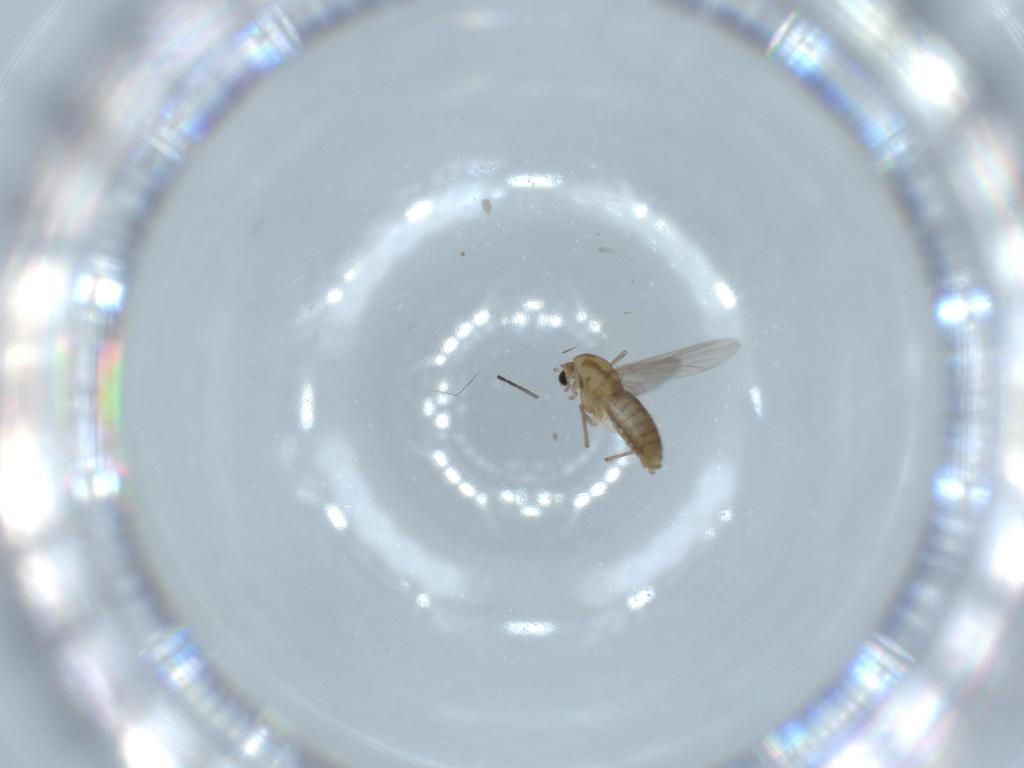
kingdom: Animalia
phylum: Arthropoda
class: Insecta
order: Diptera
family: Chironomidae
